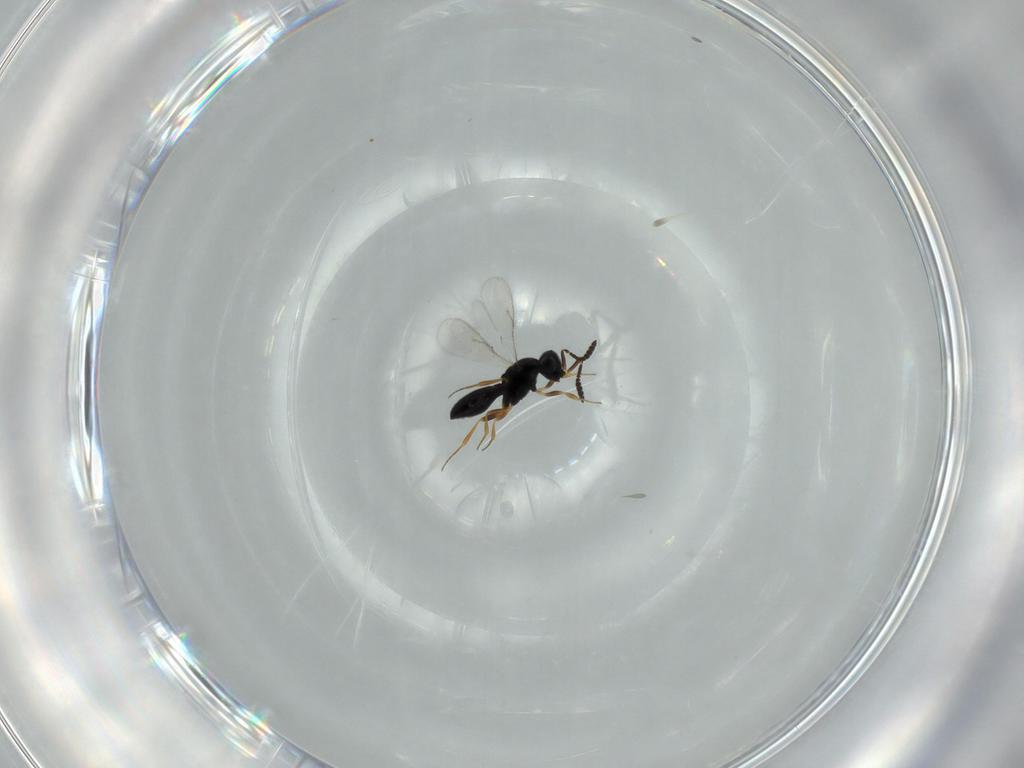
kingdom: Animalia
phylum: Arthropoda
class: Insecta
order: Hymenoptera
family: Scelionidae
